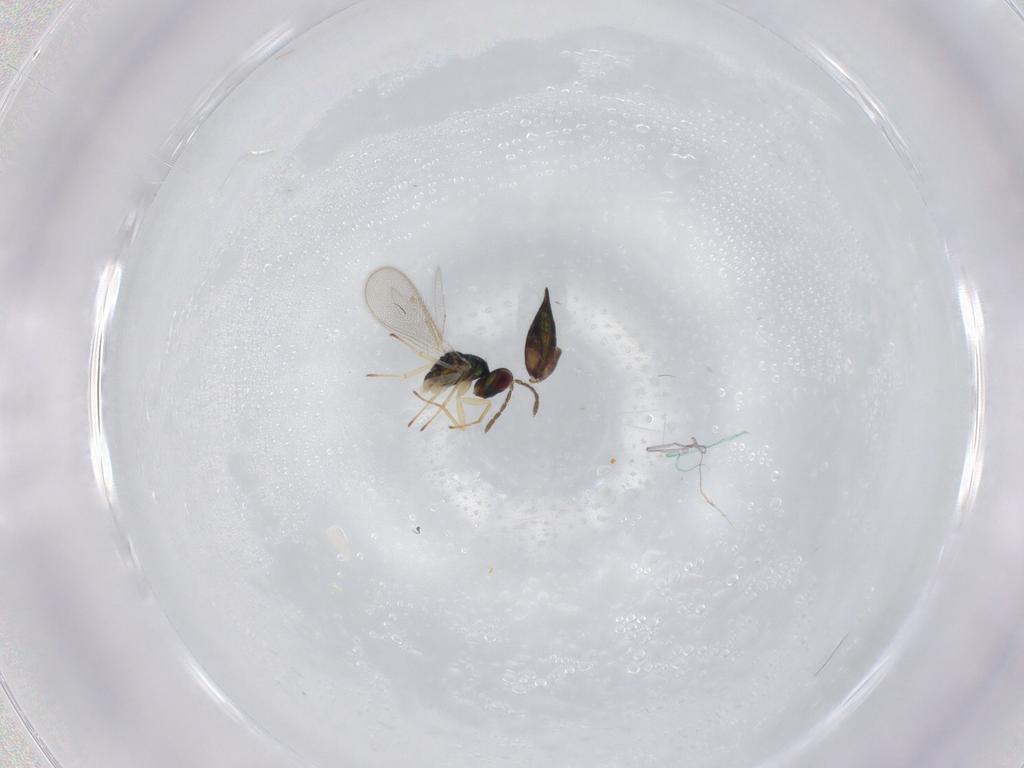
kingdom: Animalia
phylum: Arthropoda
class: Insecta
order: Hymenoptera
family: Eulophidae
